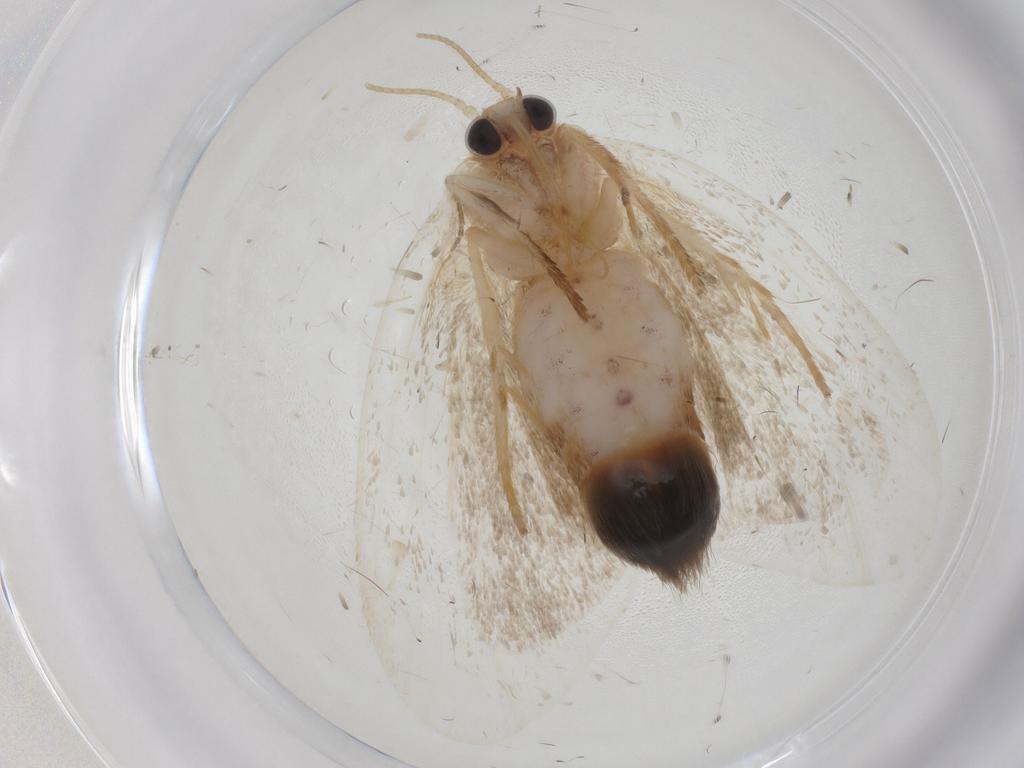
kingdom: Animalia
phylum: Arthropoda
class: Insecta
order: Lepidoptera
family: Erebidae
